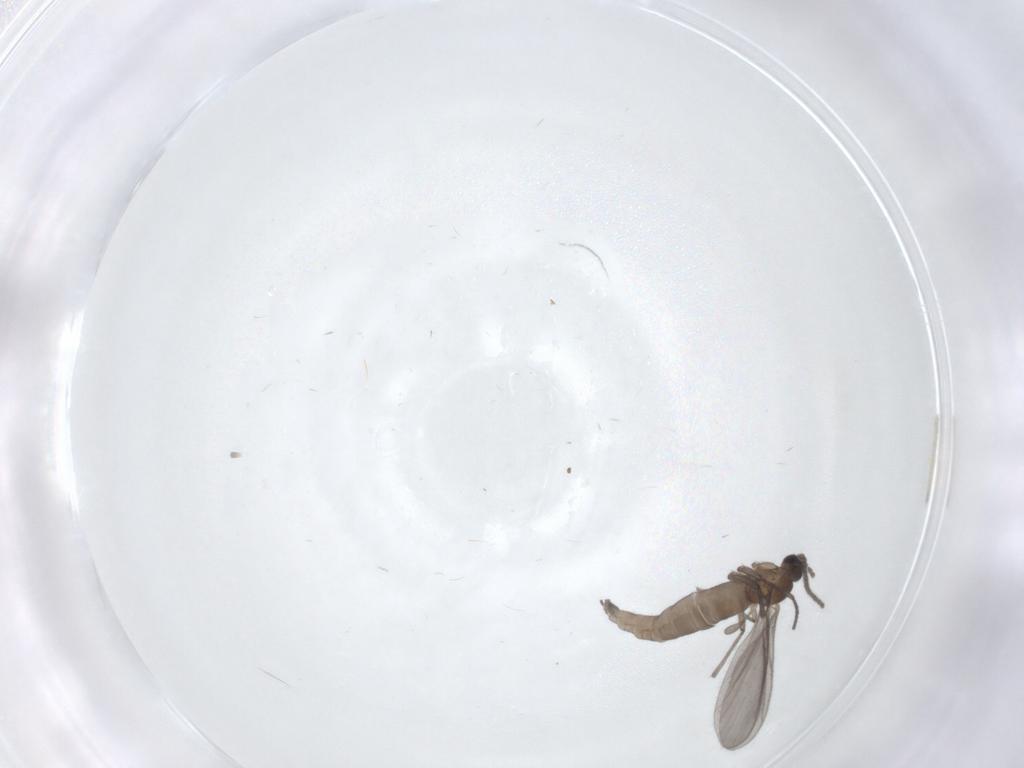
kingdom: Animalia
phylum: Arthropoda
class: Insecta
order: Diptera
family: Sciaridae
